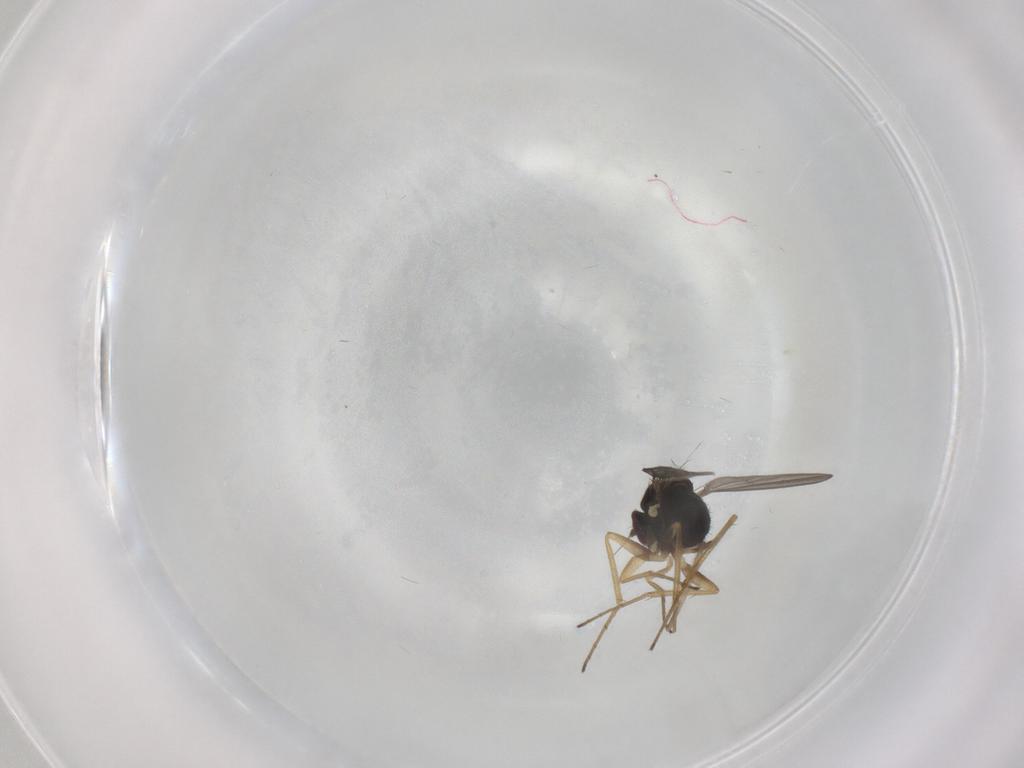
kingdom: Animalia
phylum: Arthropoda
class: Insecta
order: Diptera
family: Dolichopodidae
